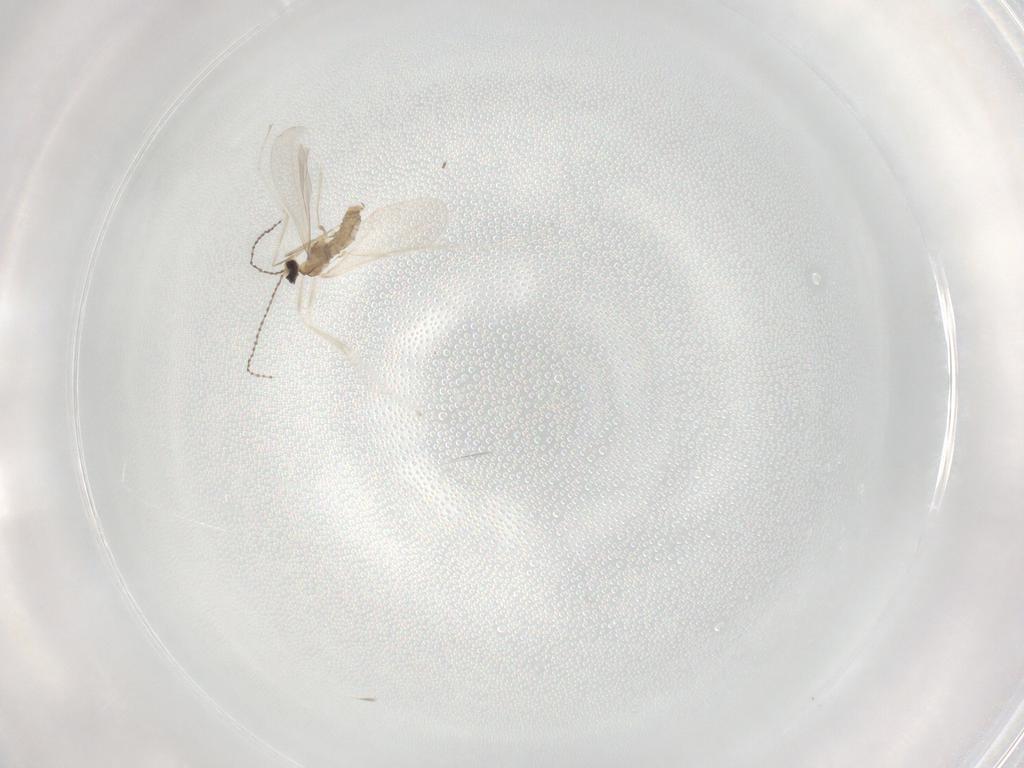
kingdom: Animalia
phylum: Arthropoda
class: Insecta
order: Diptera
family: Cecidomyiidae
